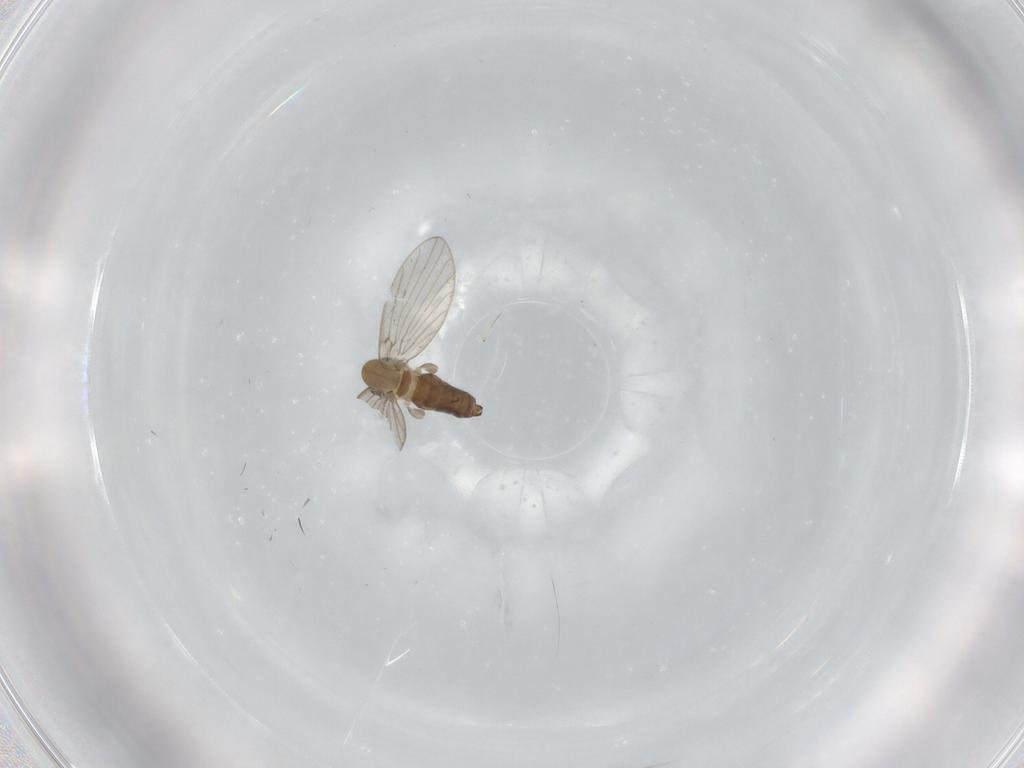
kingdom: Animalia
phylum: Arthropoda
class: Insecta
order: Diptera
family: Psychodidae
